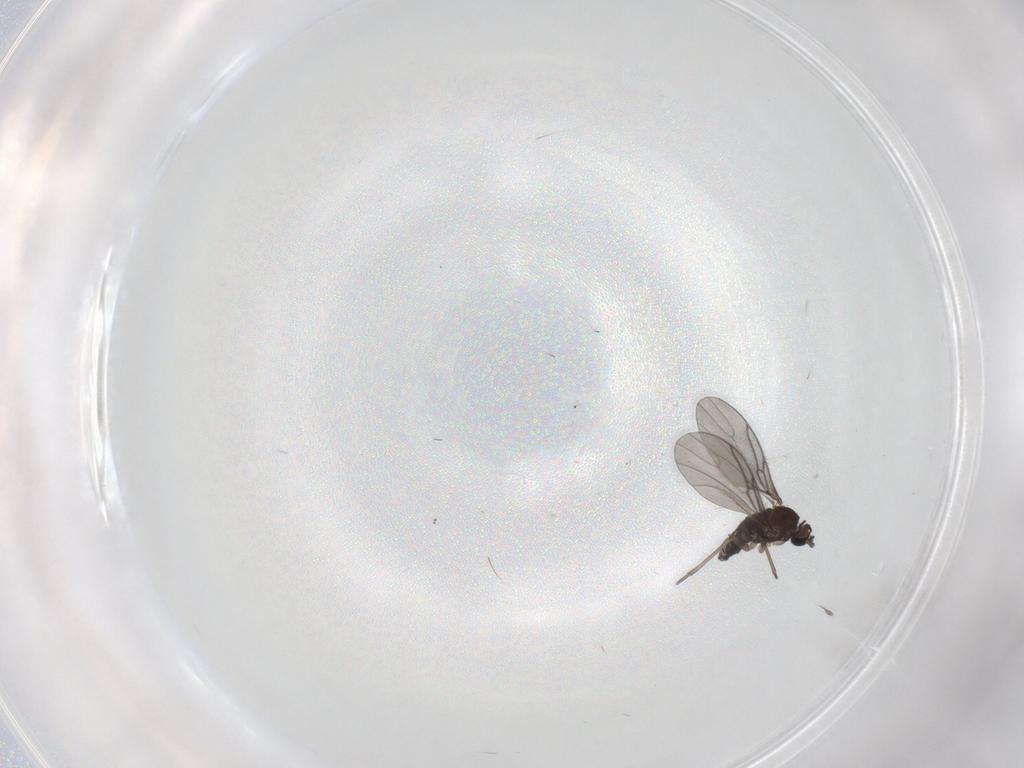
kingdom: Animalia
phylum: Arthropoda
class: Insecta
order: Diptera
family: Sciaridae
